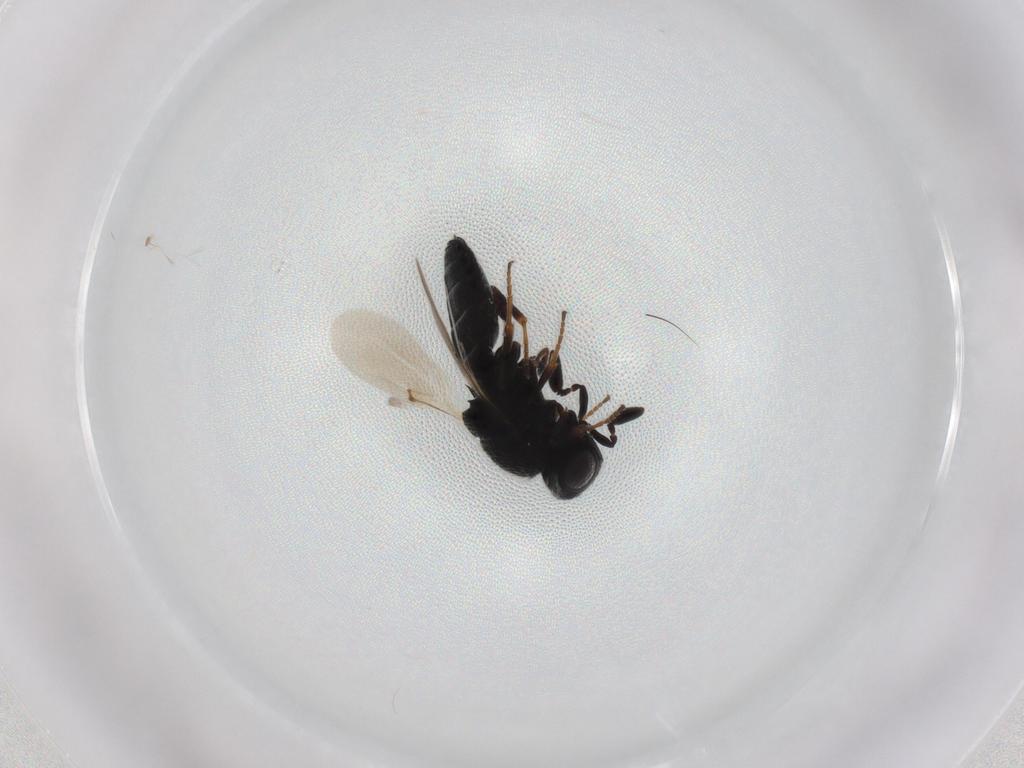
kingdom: Animalia
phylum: Arthropoda
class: Insecta
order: Hymenoptera
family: Scelionidae
